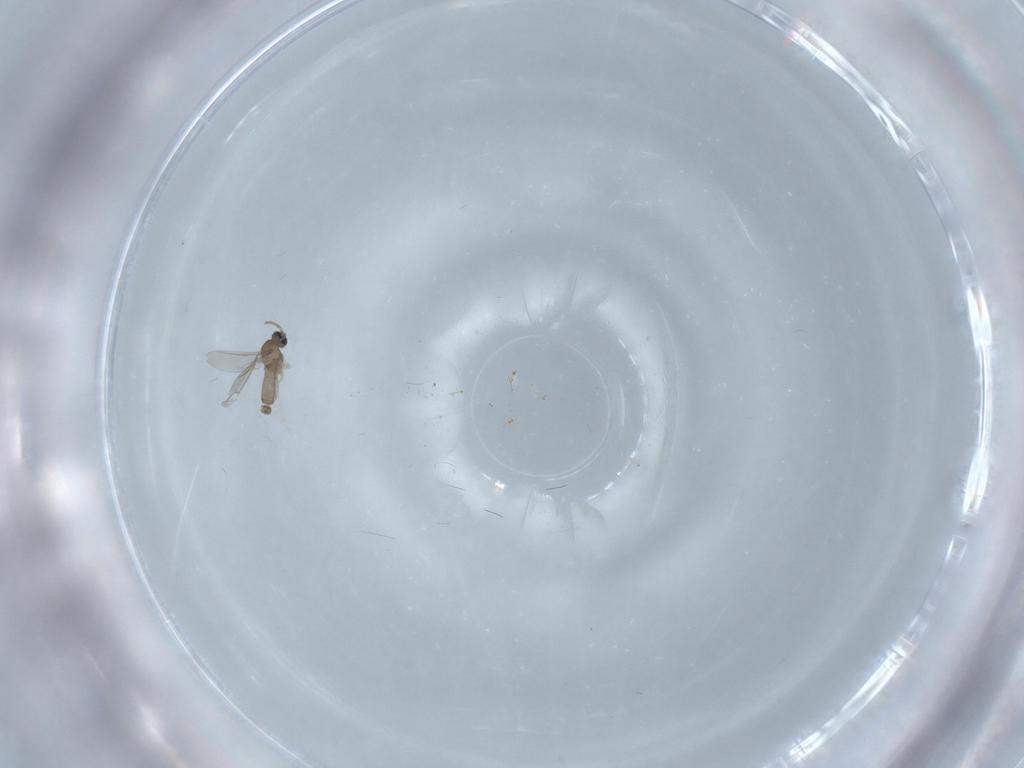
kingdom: Animalia
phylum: Arthropoda
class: Insecta
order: Diptera
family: Cecidomyiidae
